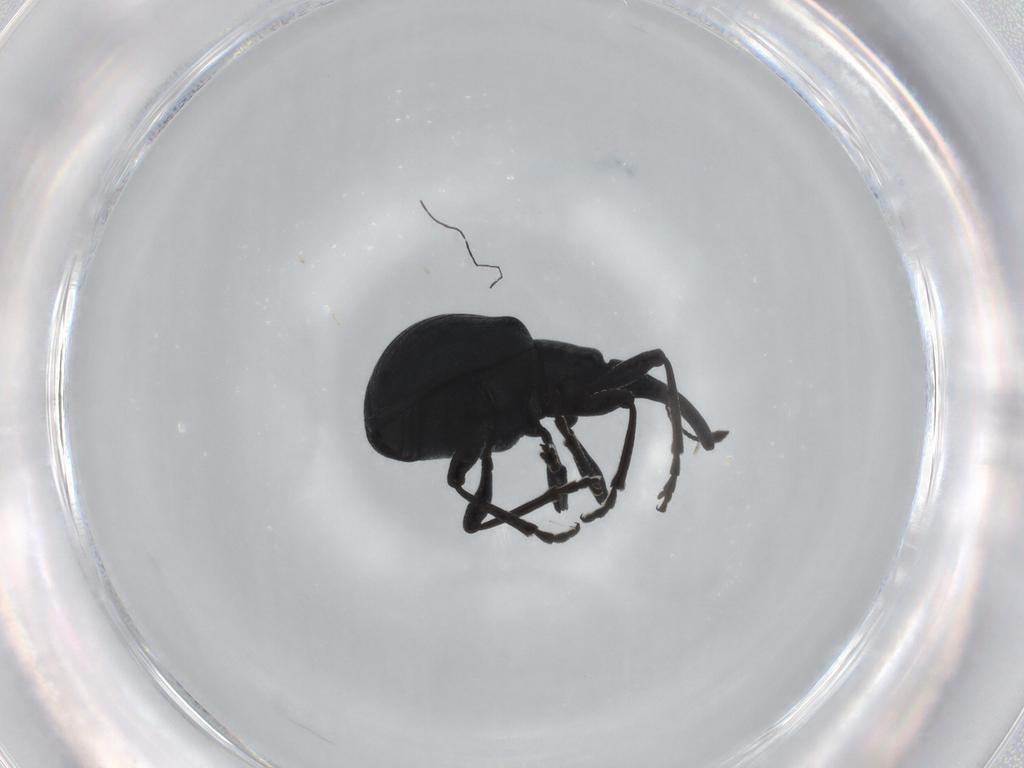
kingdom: Animalia
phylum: Arthropoda
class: Insecta
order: Coleoptera
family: Brentidae
